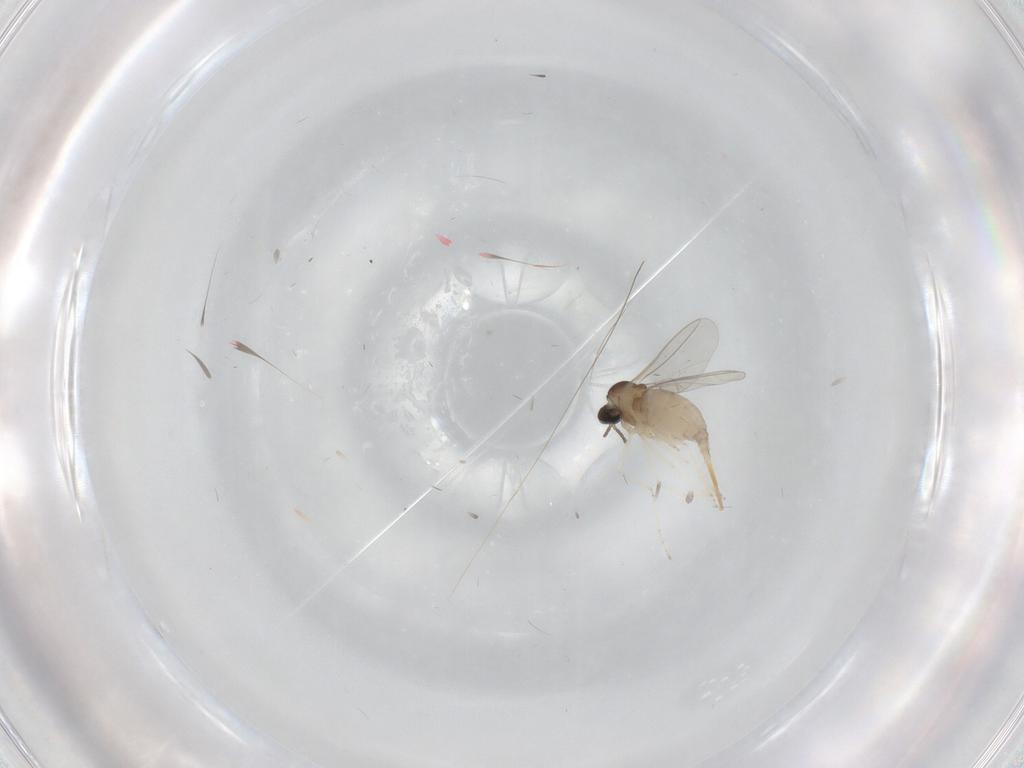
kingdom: Animalia
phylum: Arthropoda
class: Insecta
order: Diptera
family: Cecidomyiidae
